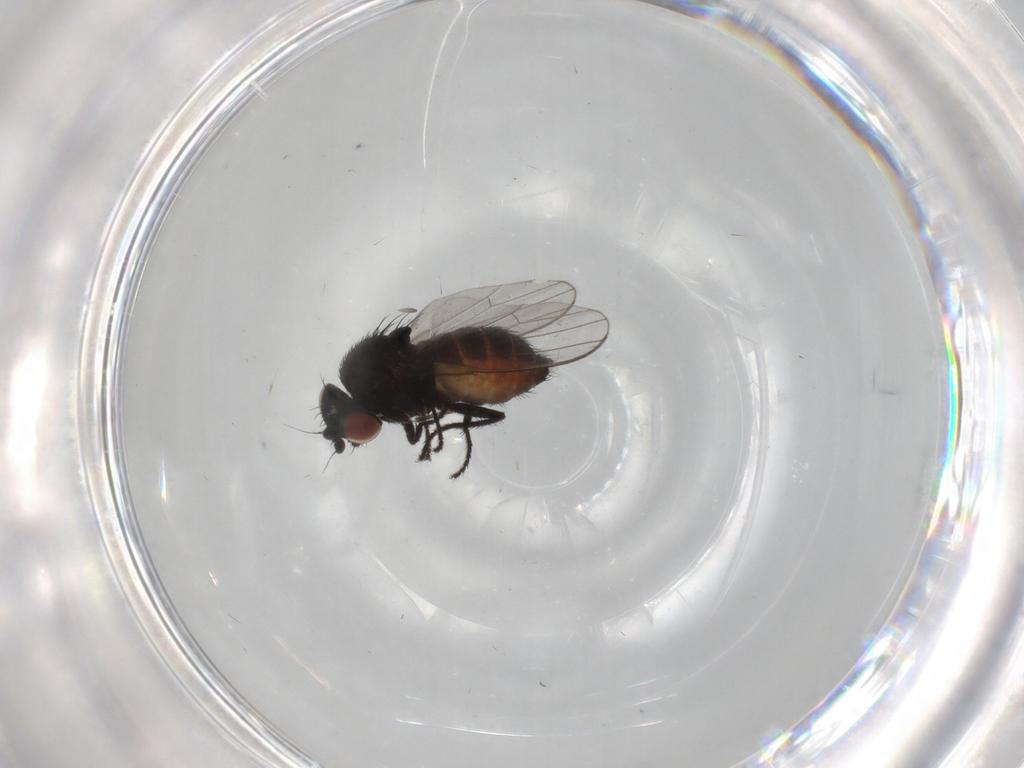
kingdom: Animalia
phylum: Arthropoda
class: Insecta
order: Diptera
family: Milichiidae
